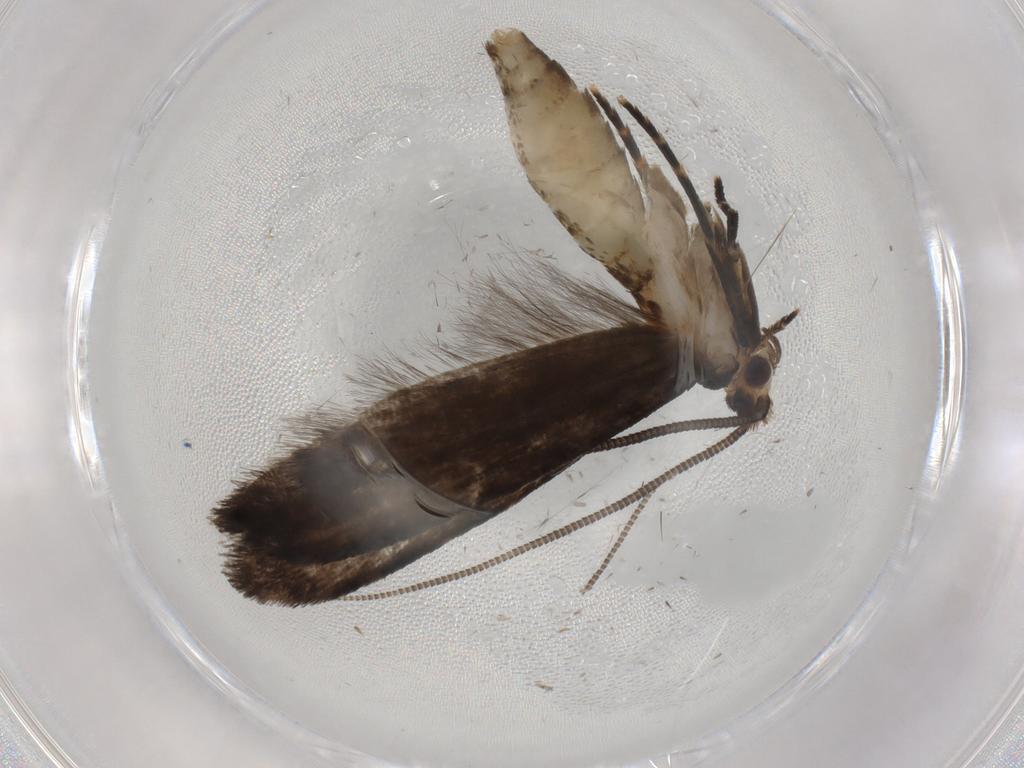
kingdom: Animalia
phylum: Arthropoda
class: Insecta
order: Lepidoptera
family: Tineidae
